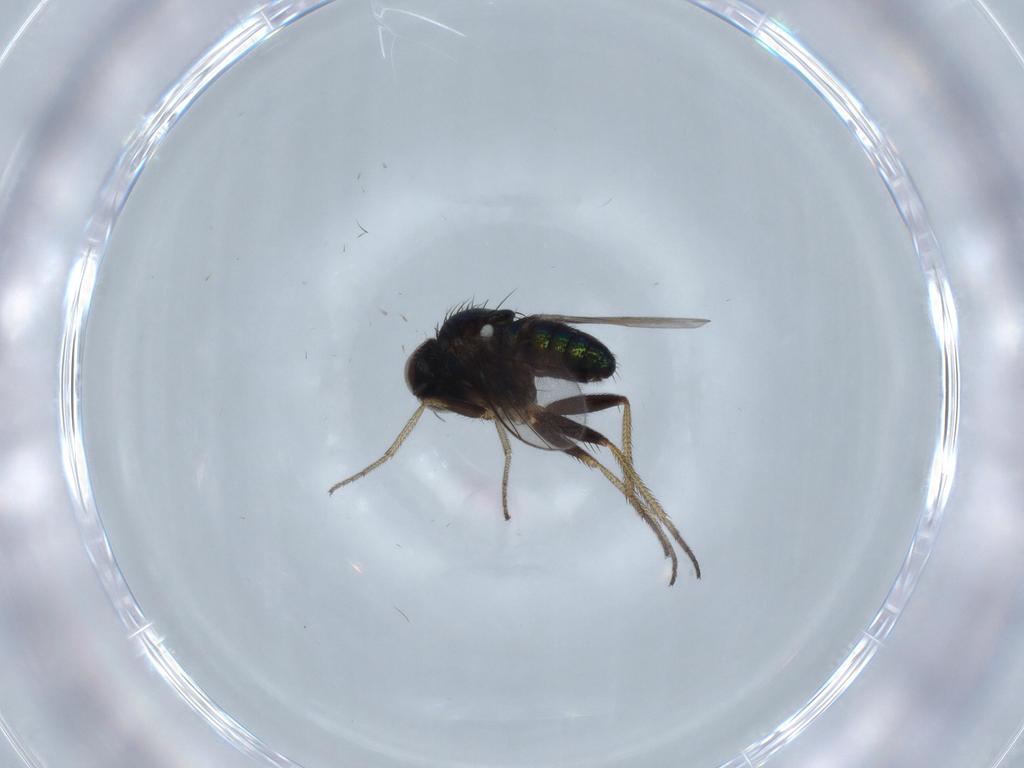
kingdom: Animalia
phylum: Arthropoda
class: Insecta
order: Diptera
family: Dolichopodidae
